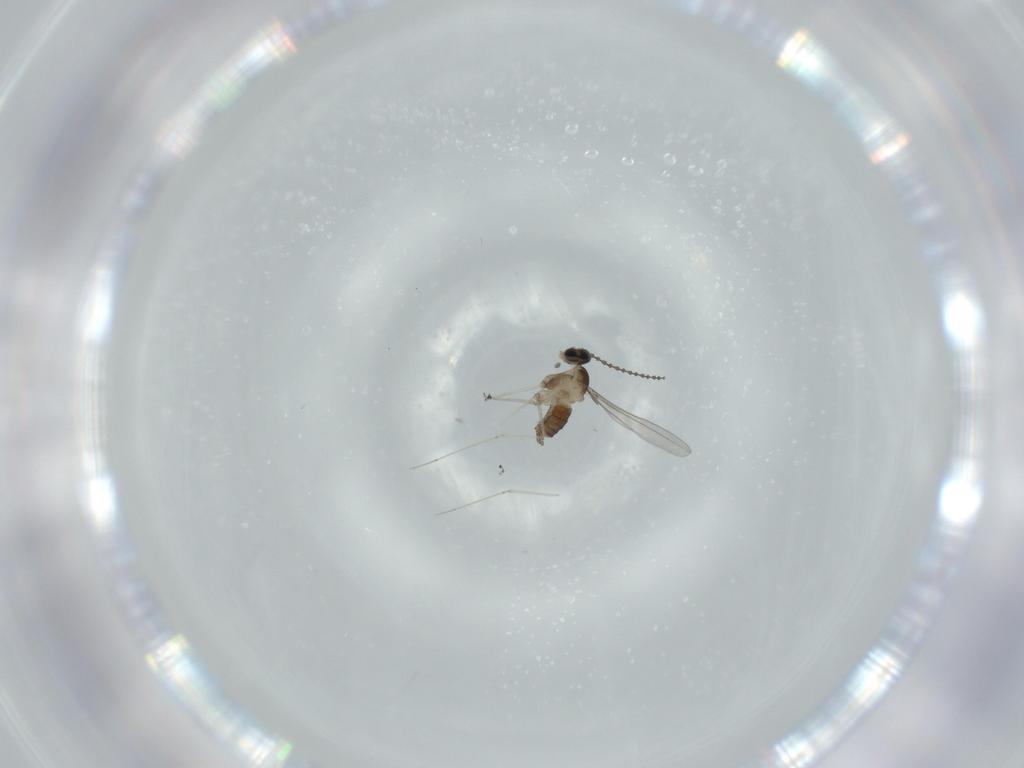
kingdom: Animalia
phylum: Arthropoda
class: Insecta
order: Diptera
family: Cecidomyiidae
